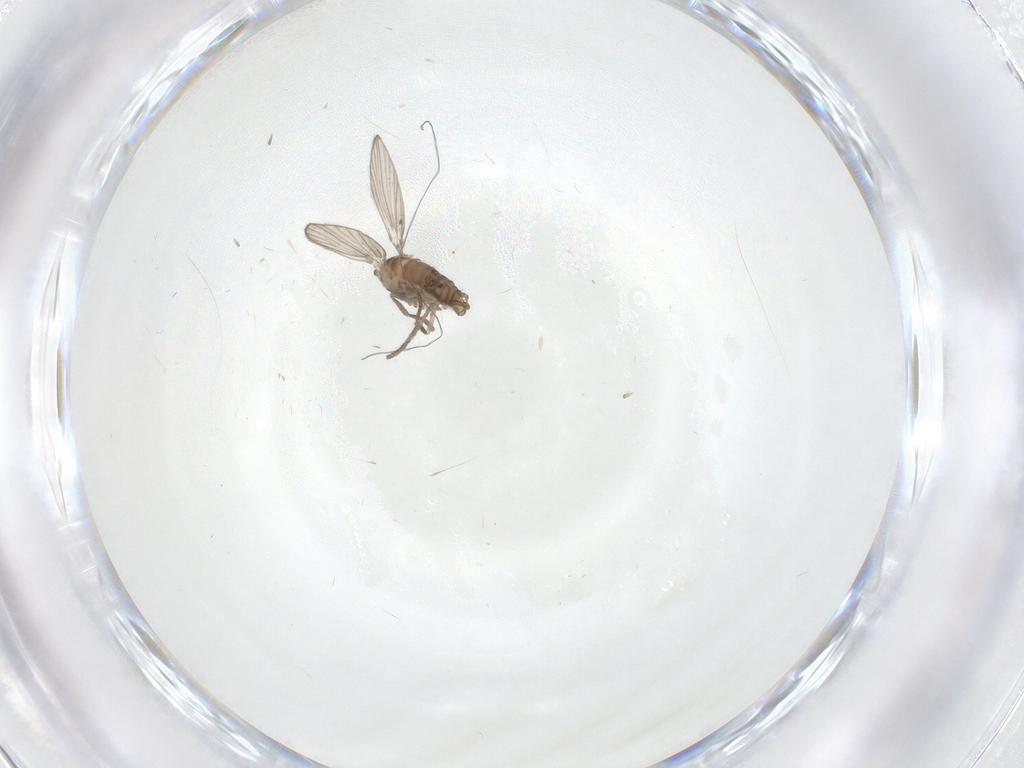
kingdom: Animalia
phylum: Arthropoda
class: Insecta
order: Diptera
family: Psychodidae
